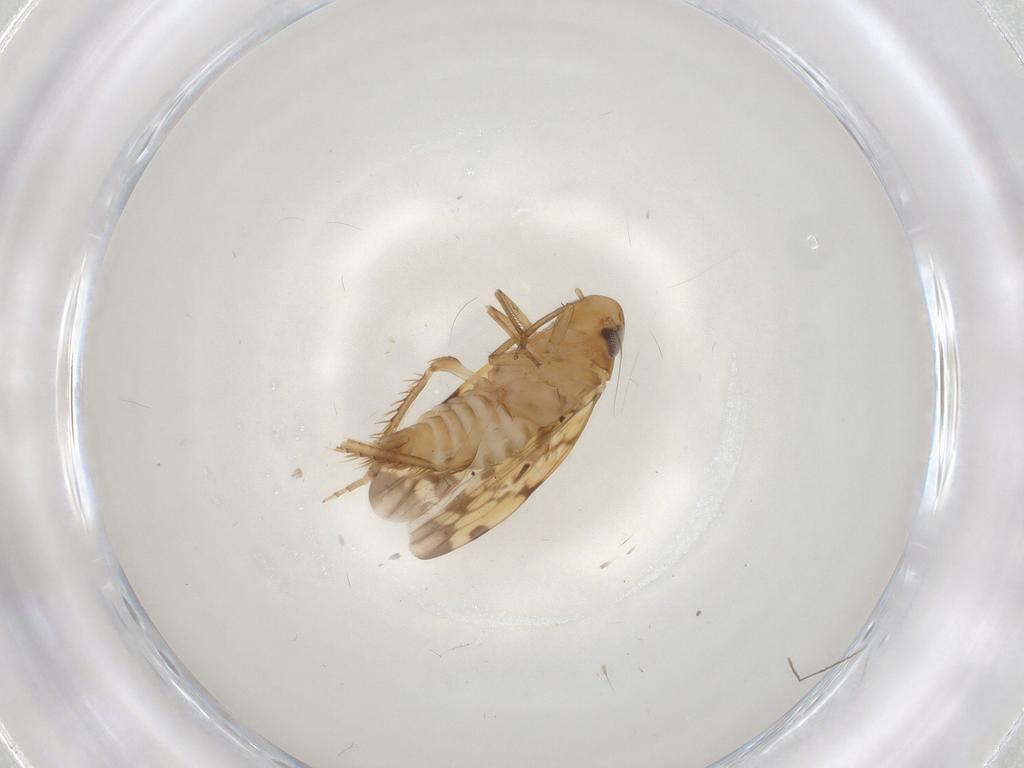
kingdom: Animalia
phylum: Arthropoda
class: Insecta
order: Hemiptera
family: Cicadellidae
